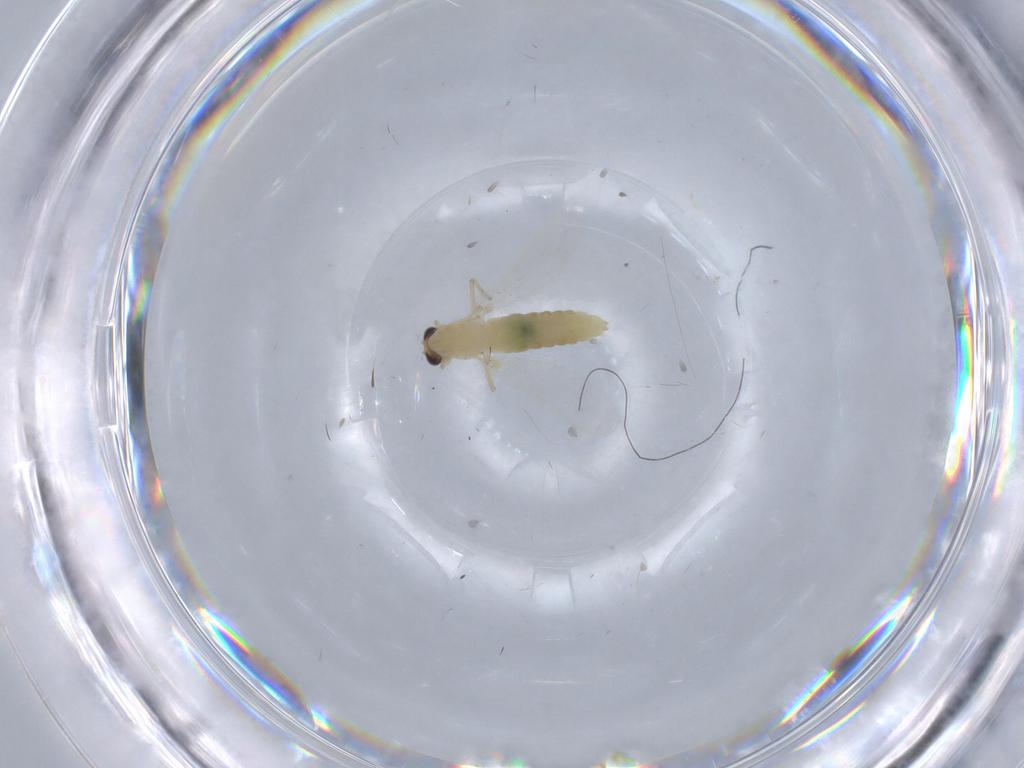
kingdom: Animalia
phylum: Arthropoda
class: Insecta
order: Diptera
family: Chironomidae
